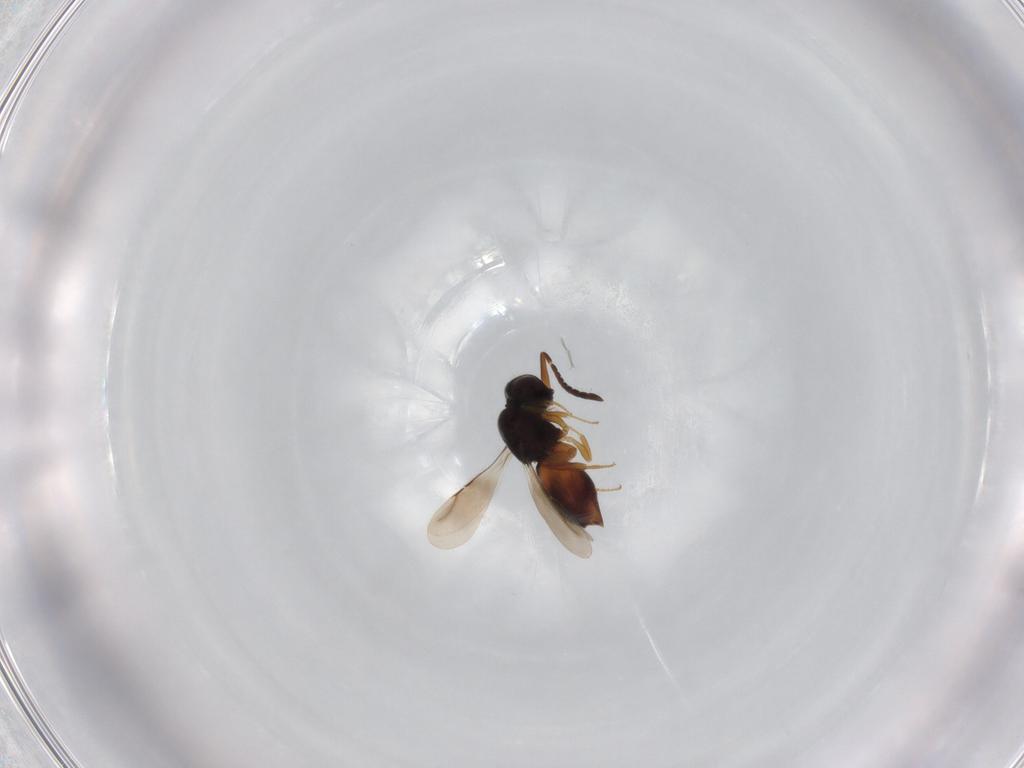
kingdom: Animalia
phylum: Arthropoda
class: Insecta
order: Hymenoptera
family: Ceraphronidae
